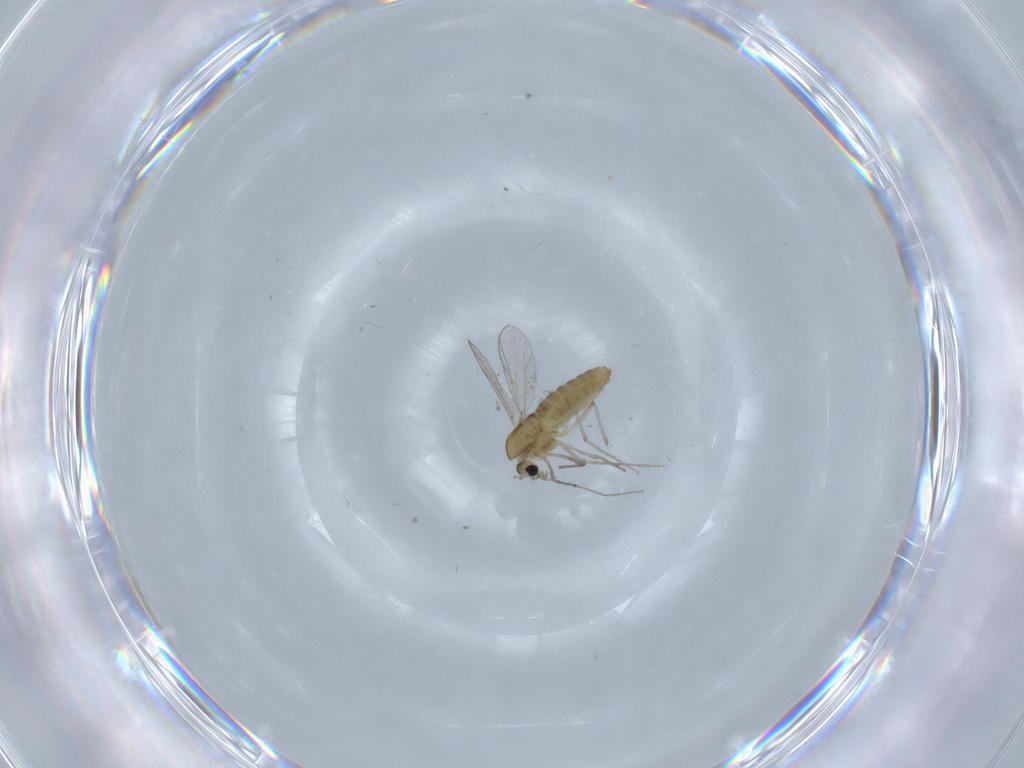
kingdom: Animalia
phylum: Arthropoda
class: Insecta
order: Diptera
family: Chironomidae
